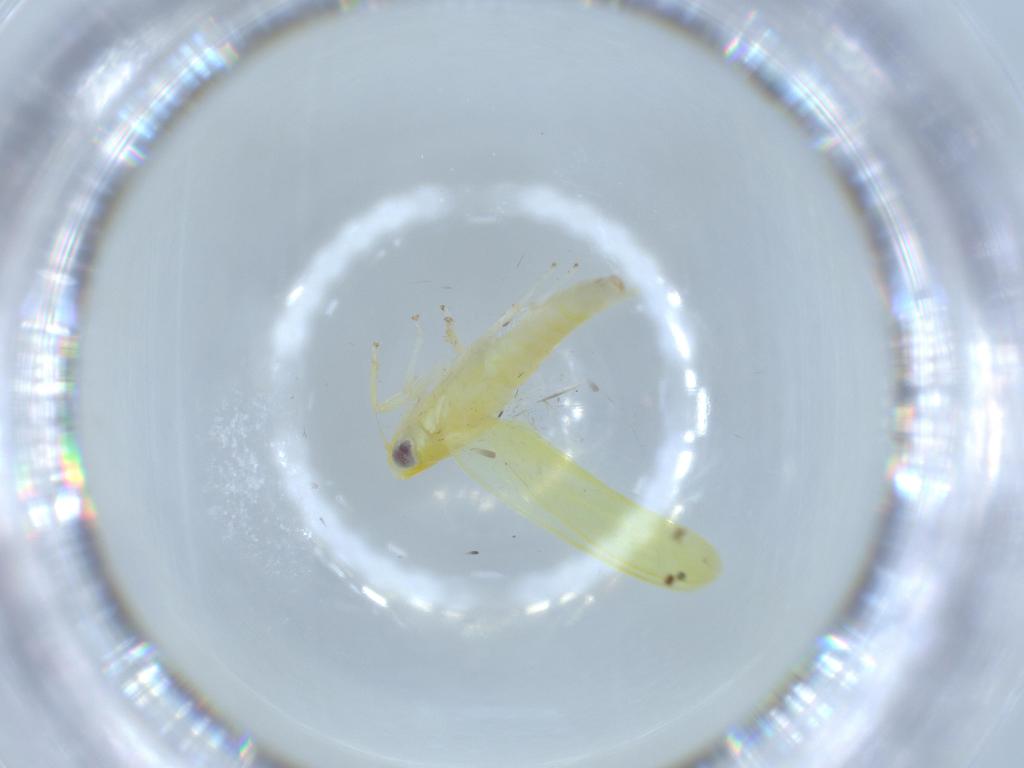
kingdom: Animalia
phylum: Arthropoda
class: Insecta
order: Hemiptera
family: Cicadellidae
